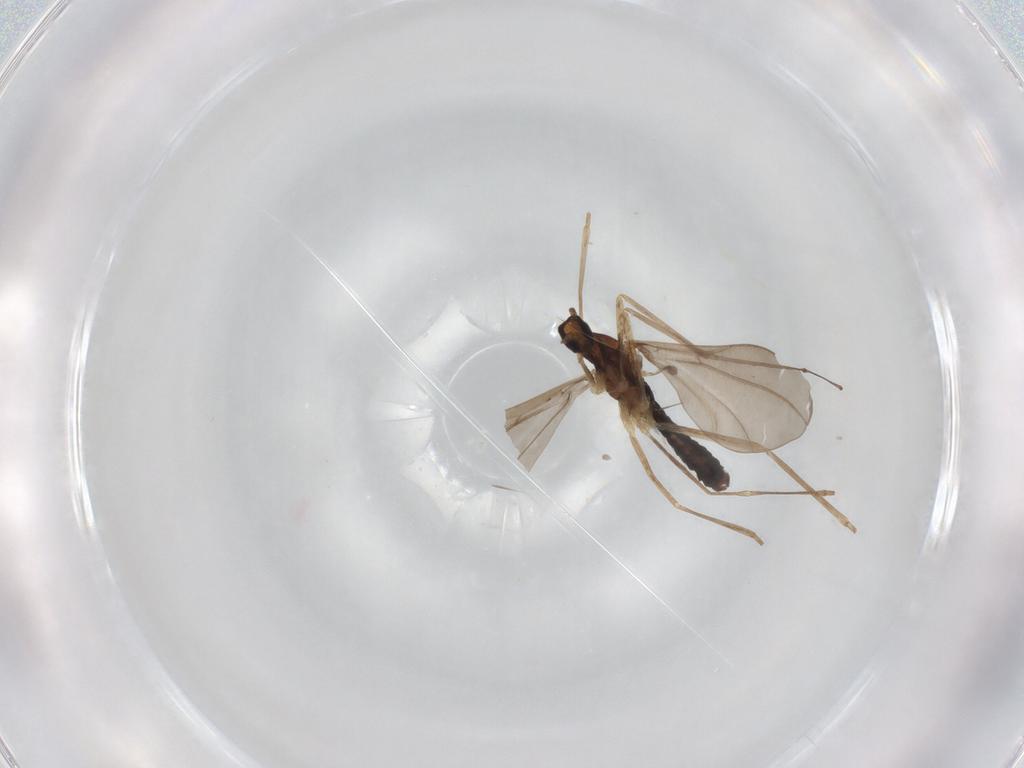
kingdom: Animalia
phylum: Arthropoda
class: Insecta
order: Diptera
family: Cecidomyiidae
